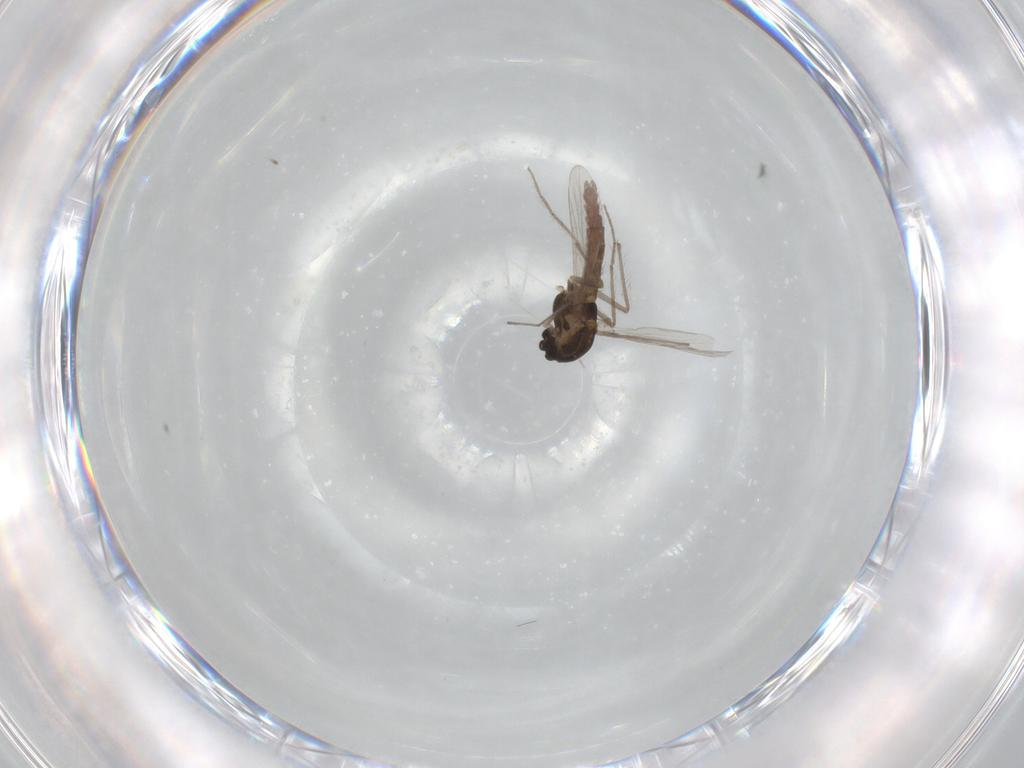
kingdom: Animalia
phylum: Arthropoda
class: Insecta
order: Diptera
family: Chironomidae
